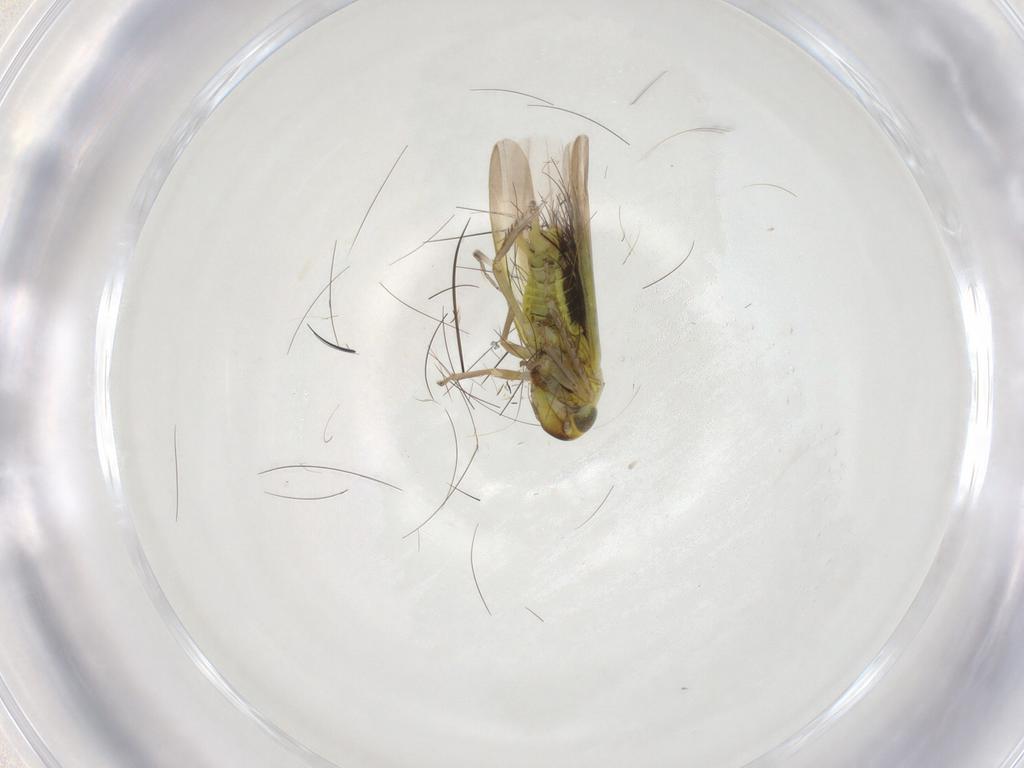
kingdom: Animalia
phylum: Arthropoda
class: Insecta
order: Hemiptera
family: Cicadellidae
